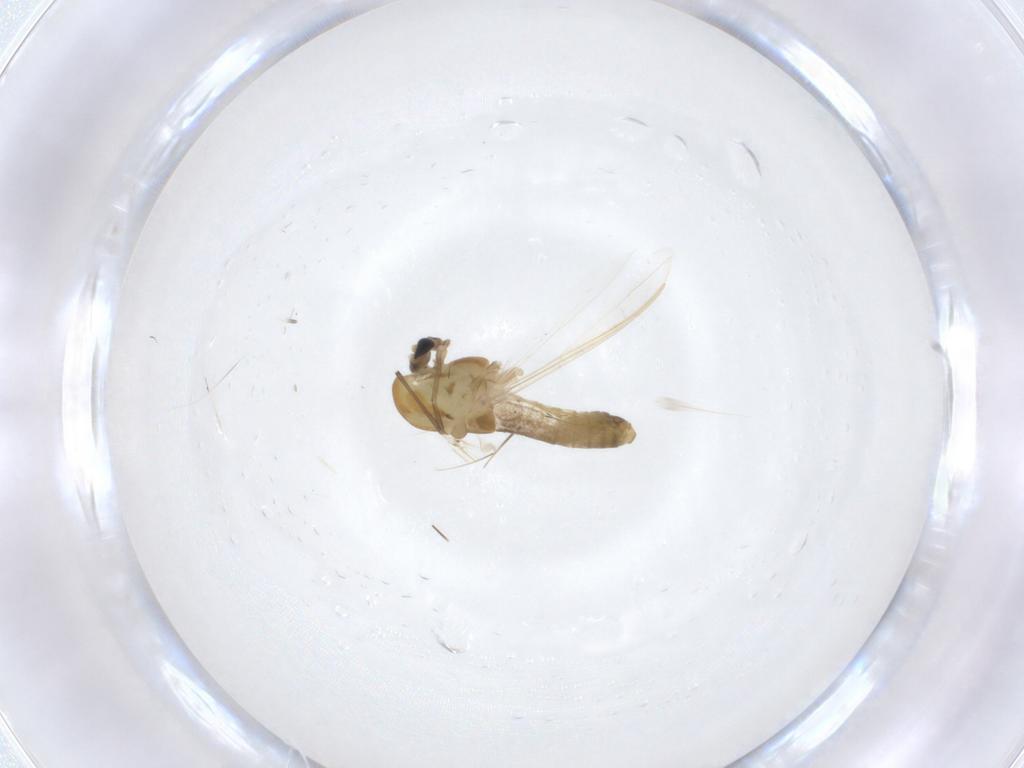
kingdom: Animalia
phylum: Arthropoda
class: Insecta
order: Diptera
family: Chironomidae
